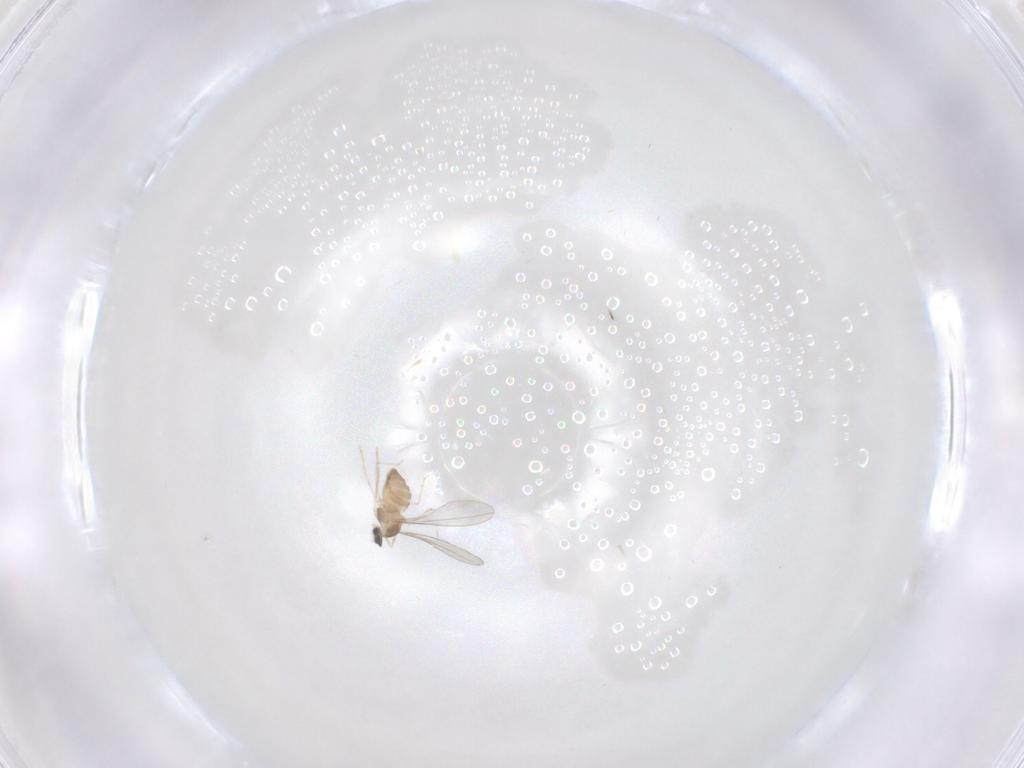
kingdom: Animalia
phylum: Arthropoda
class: Insecta
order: Diptera
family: Cecidomyiidae
